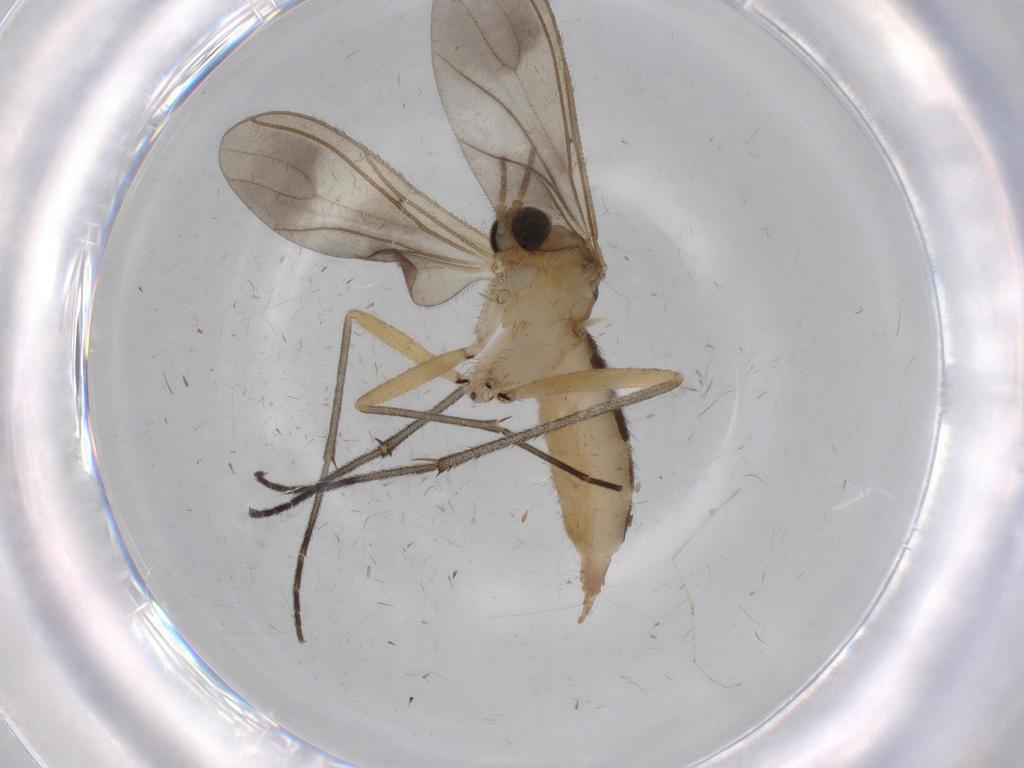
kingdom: Animalia
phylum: Arthropoda
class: Insecta
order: Diptera
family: Sciaridae
